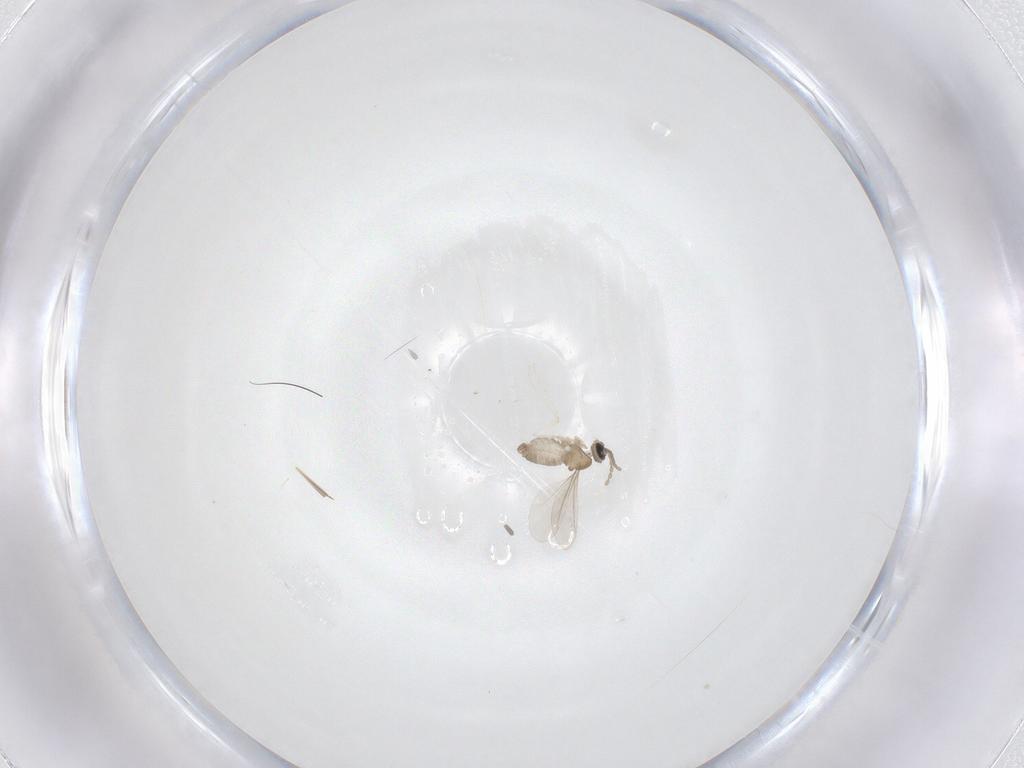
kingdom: Animalia
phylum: Arthropoda
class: Insecta
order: Diptera
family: Cecidomyiidae
